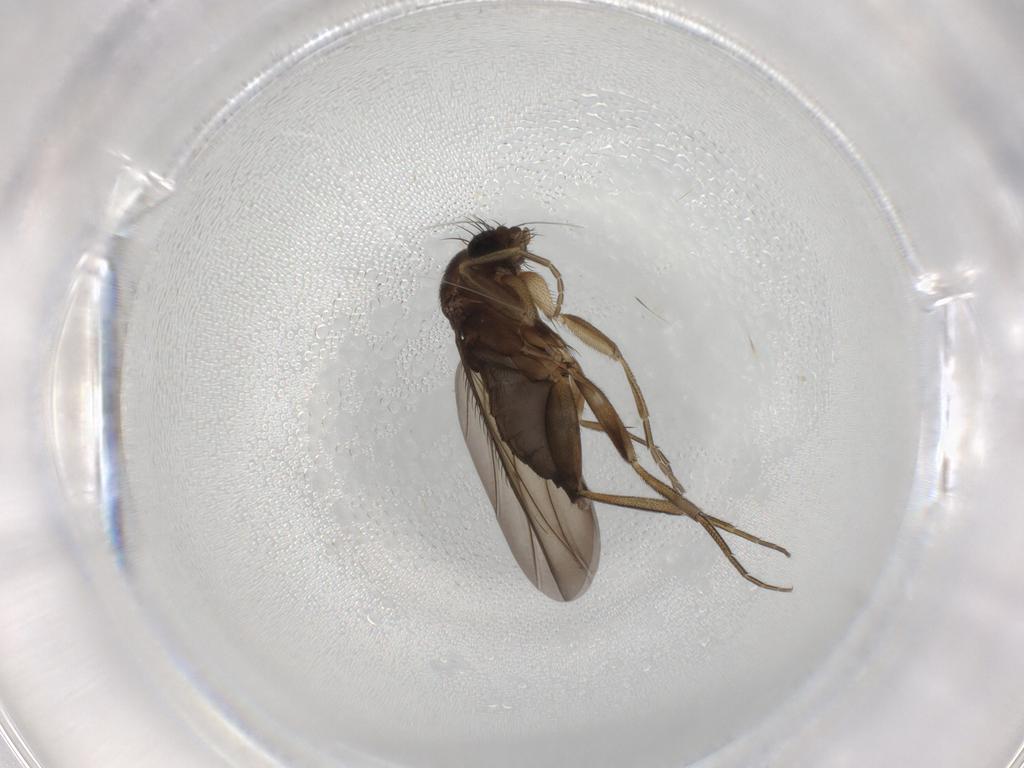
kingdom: Animalia
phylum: Arthropoda
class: Insecta
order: Diptera
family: Phoridae
